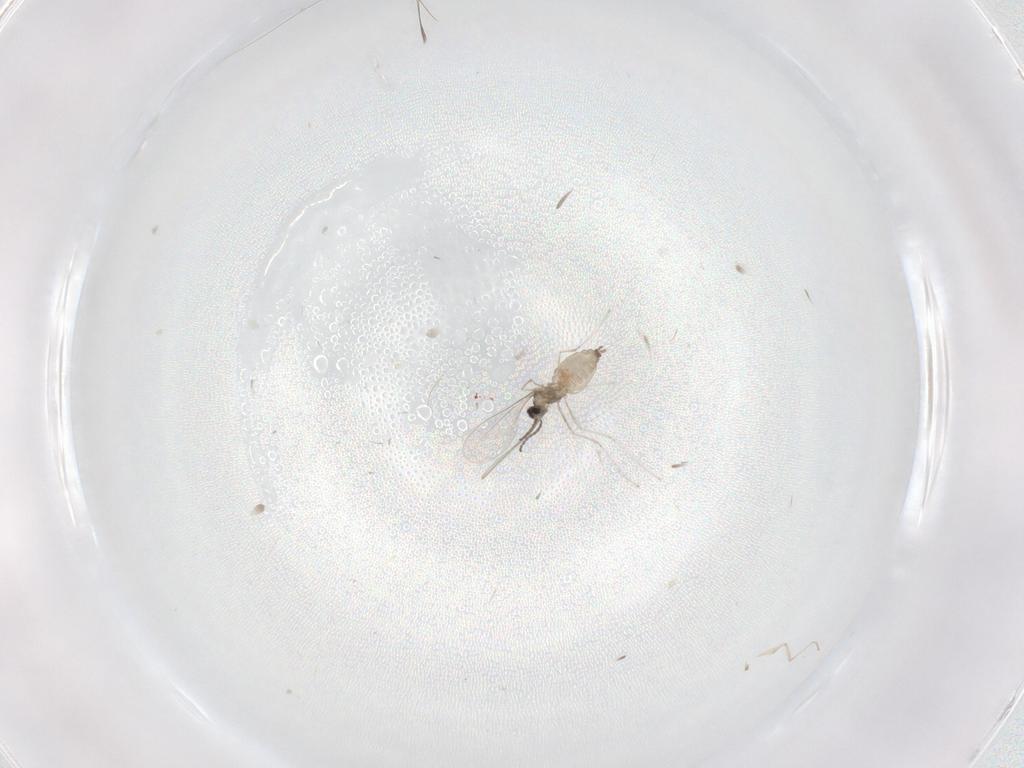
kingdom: Animalia
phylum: Arthropoda
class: Insecta
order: Diptera
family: Cecidomyiidae
